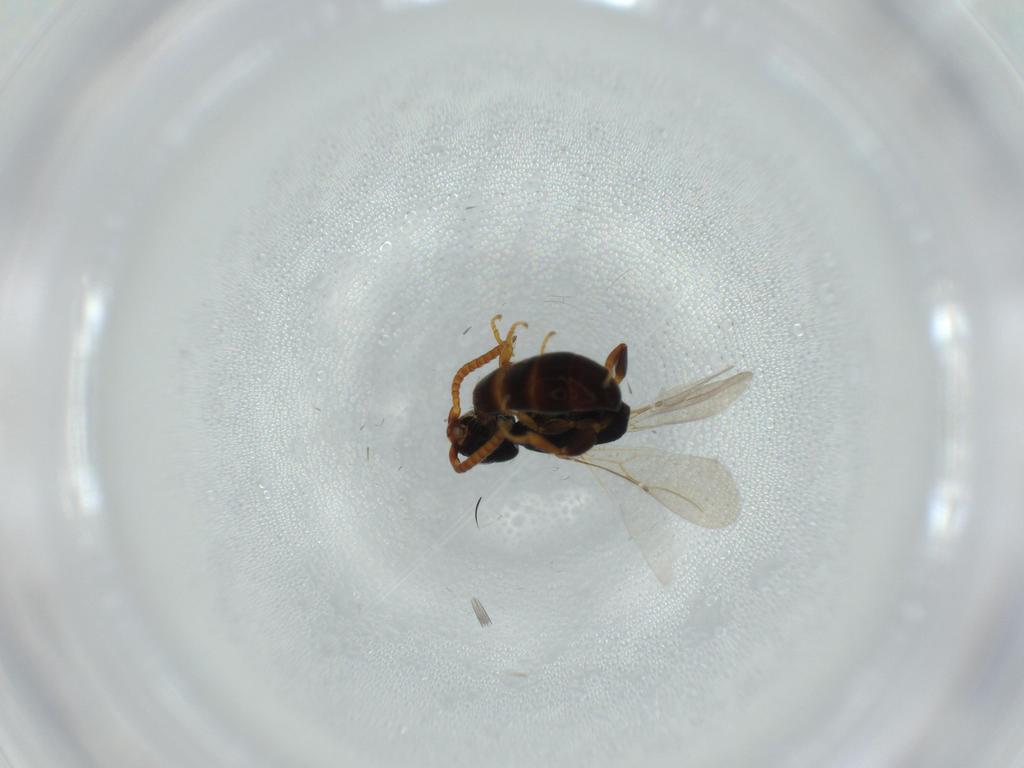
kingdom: Animalia
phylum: Arthropoda
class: Insecta
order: Hymenoptera
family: Bethylidae
